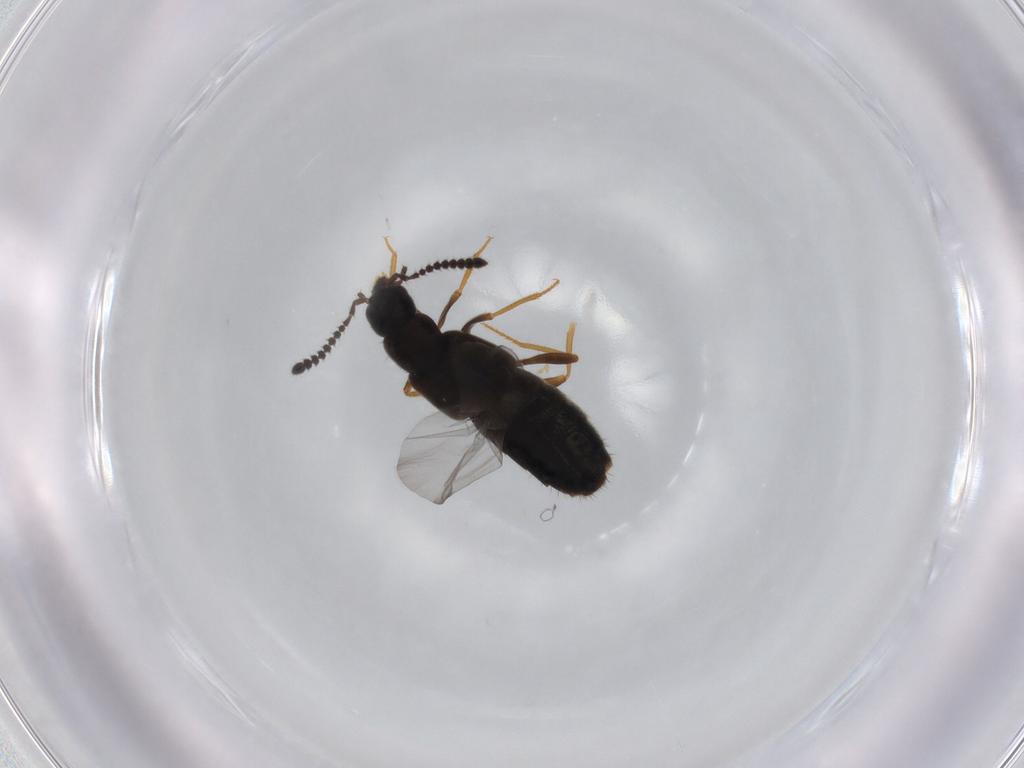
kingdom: Animalia
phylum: Arthropoda
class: Insecta
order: Coleoptera
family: Staphylinidae
